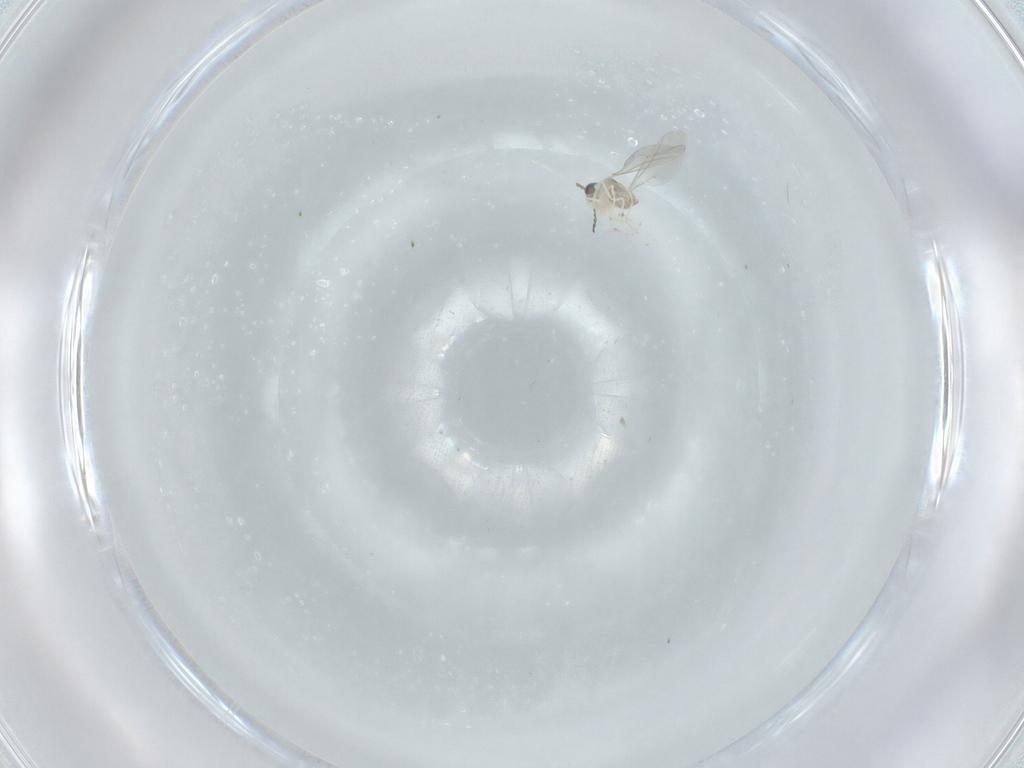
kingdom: Animalia
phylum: Arthropoda
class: Insecta
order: Diptera
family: Cecidomyiidae
